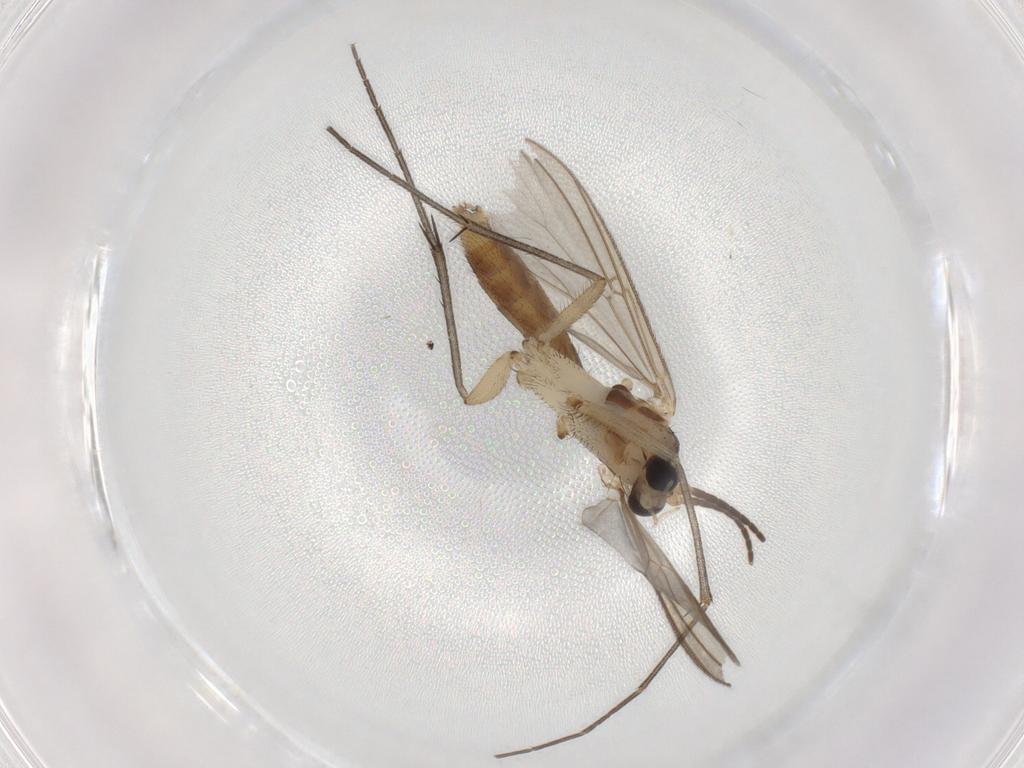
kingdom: Animalia
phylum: Arthropoda
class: Insecta
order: Diptera
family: Mycetophilidae
